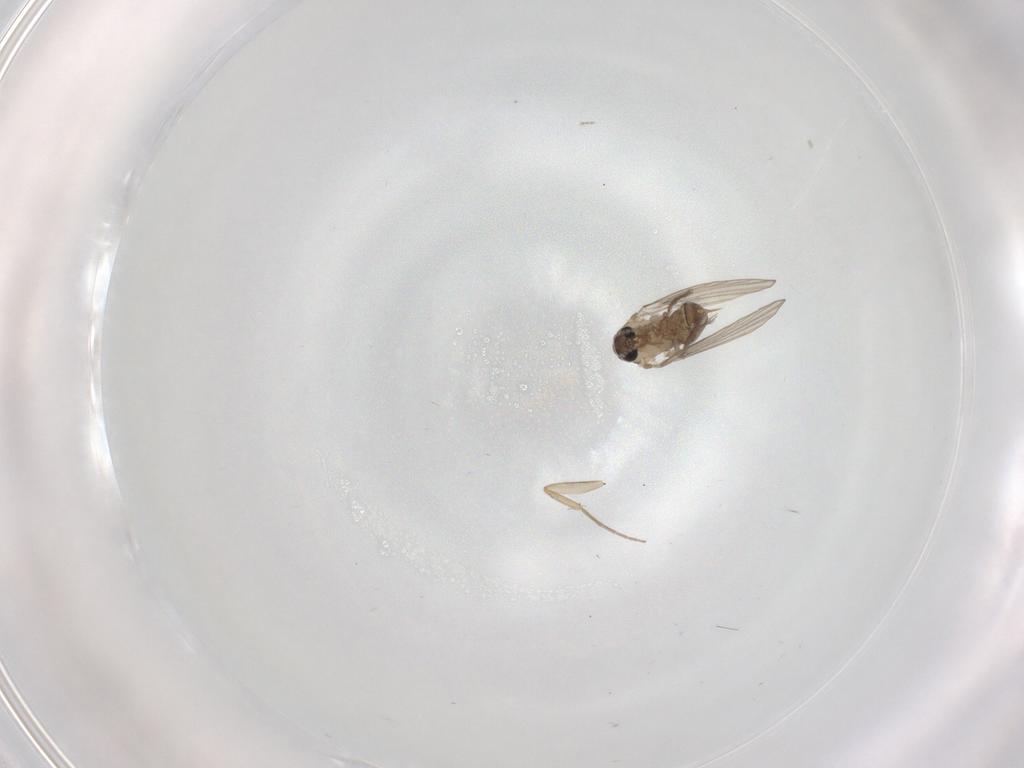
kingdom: Animalia
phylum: Arthropoda
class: Insecta
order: Diptera
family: Psychodidae
